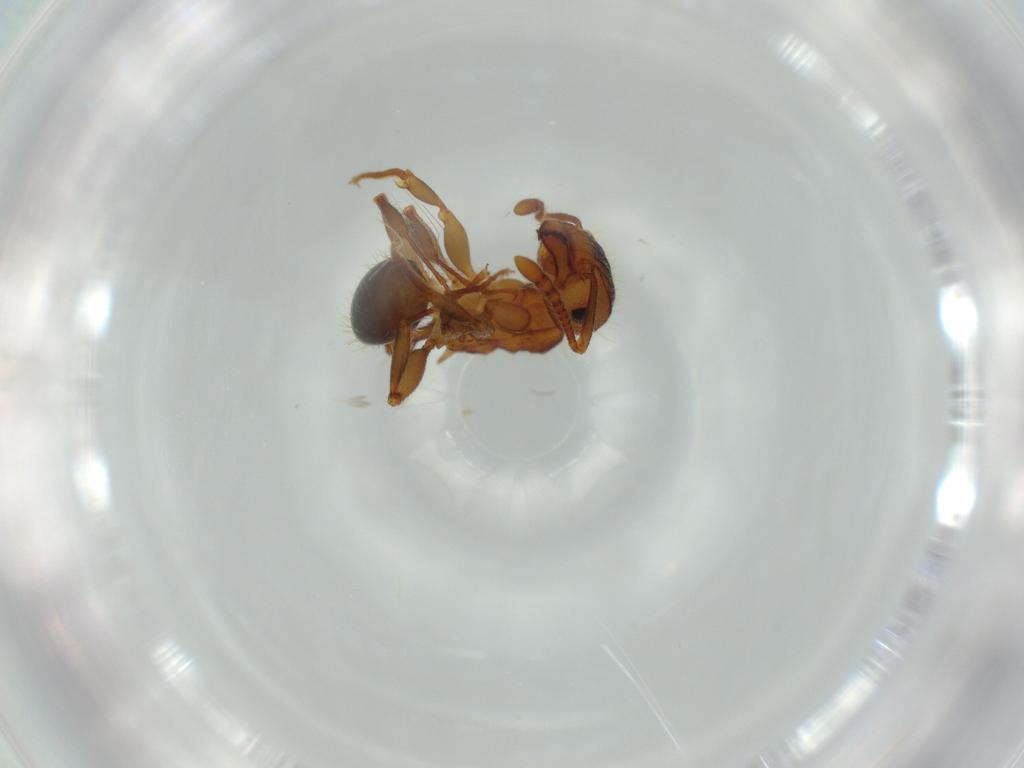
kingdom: Animalia
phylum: Arthropoda
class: Insecta
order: Hymenoptera
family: Formicidae
